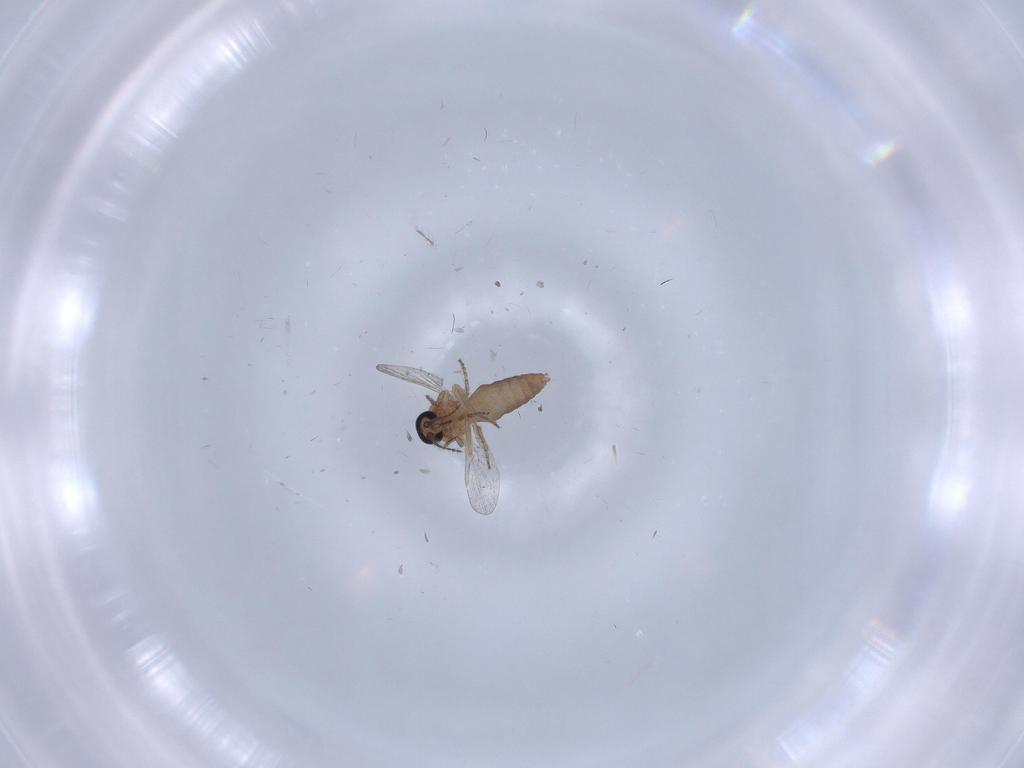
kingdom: Animalia
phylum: Arthropoda
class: Insecta
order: Diptera
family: Ceratopogonidae
